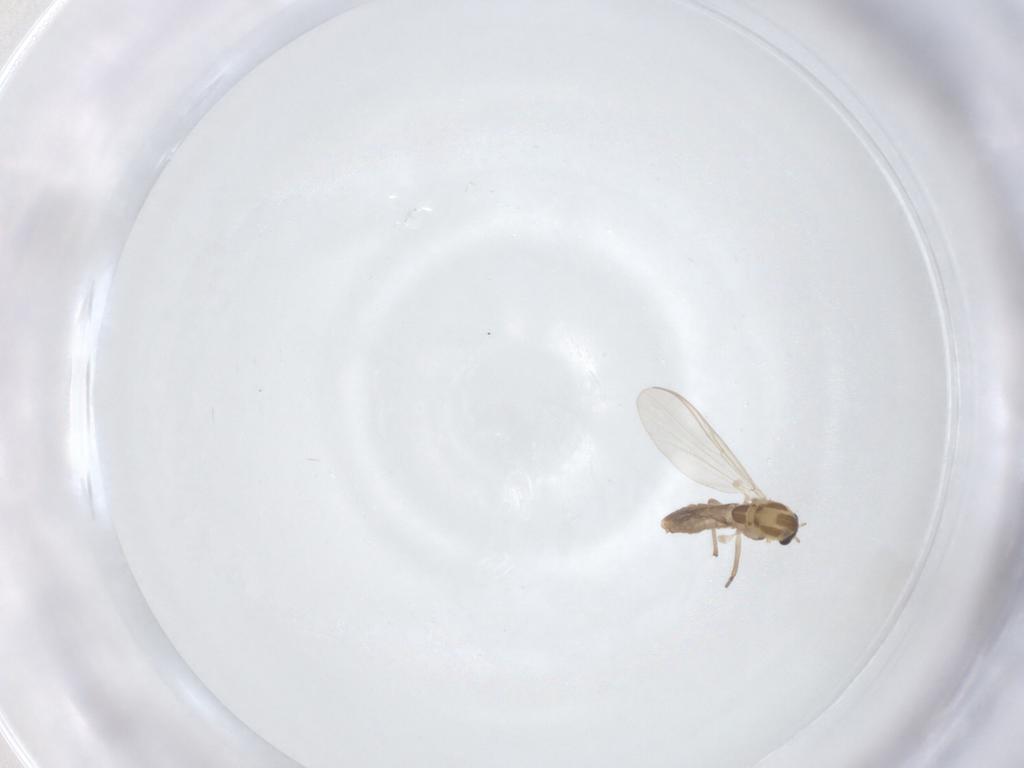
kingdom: Animalia
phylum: Arthropoda
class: Insecta
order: Diptera
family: Chironomidae
